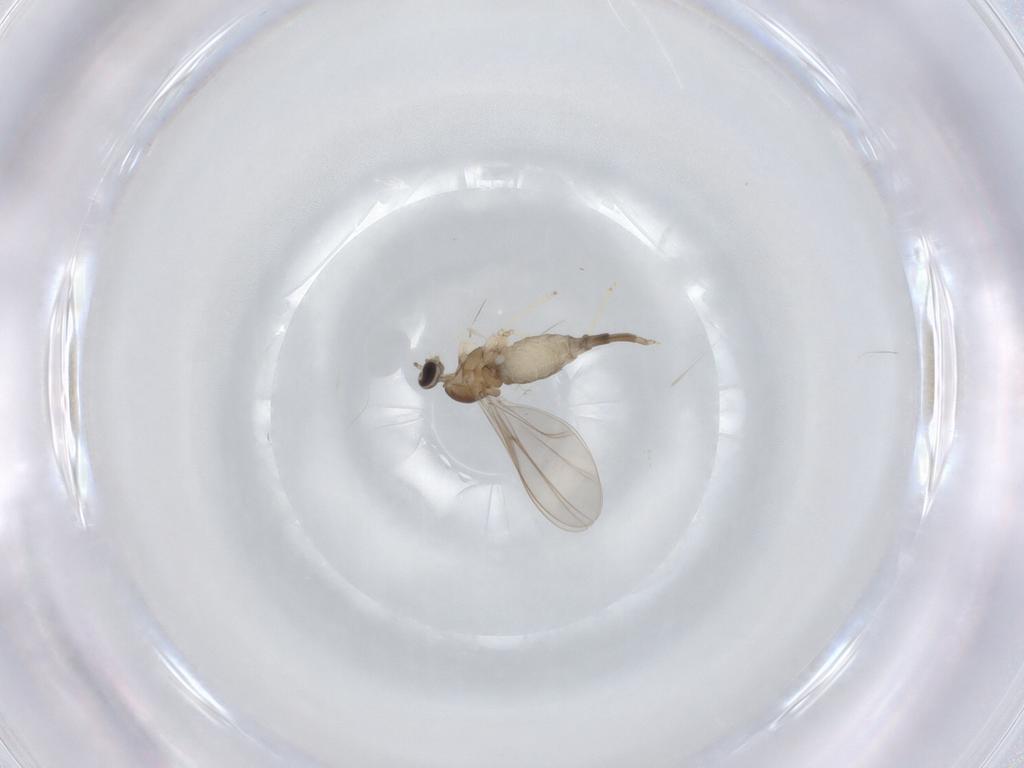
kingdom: Animalia
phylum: Arthropoda
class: Insecta
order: Diptera
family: Cecidomyiidae
